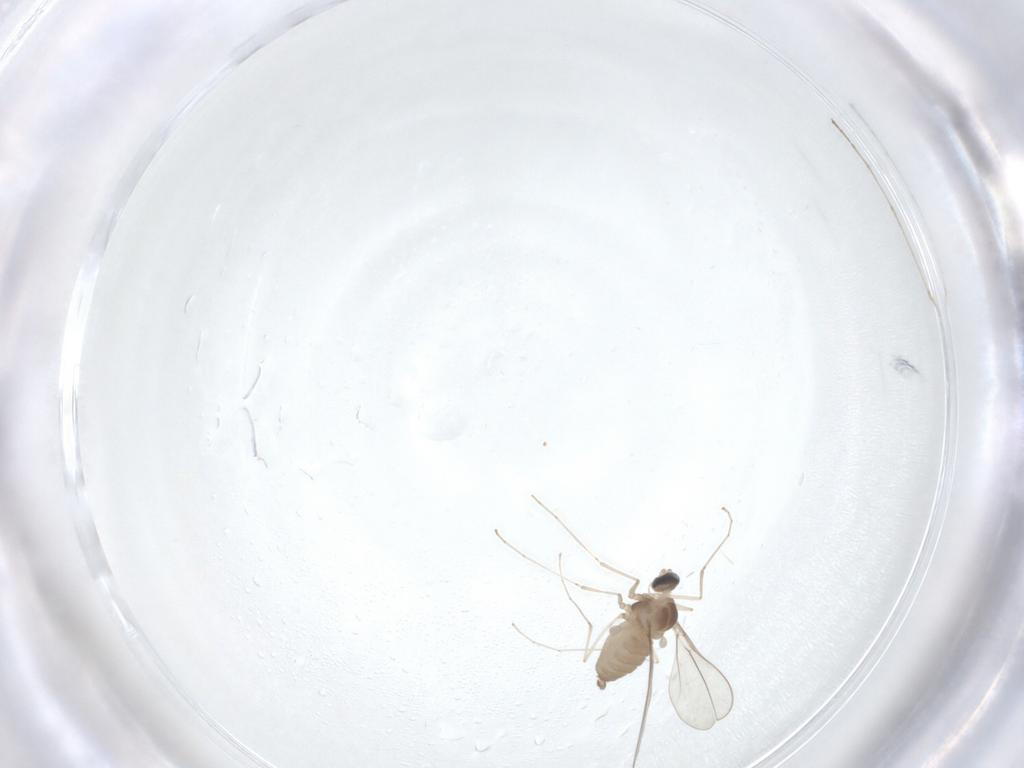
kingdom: Animalia
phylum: Arthropoda
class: Insecta
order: Diptera
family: Cecidomyiidae
